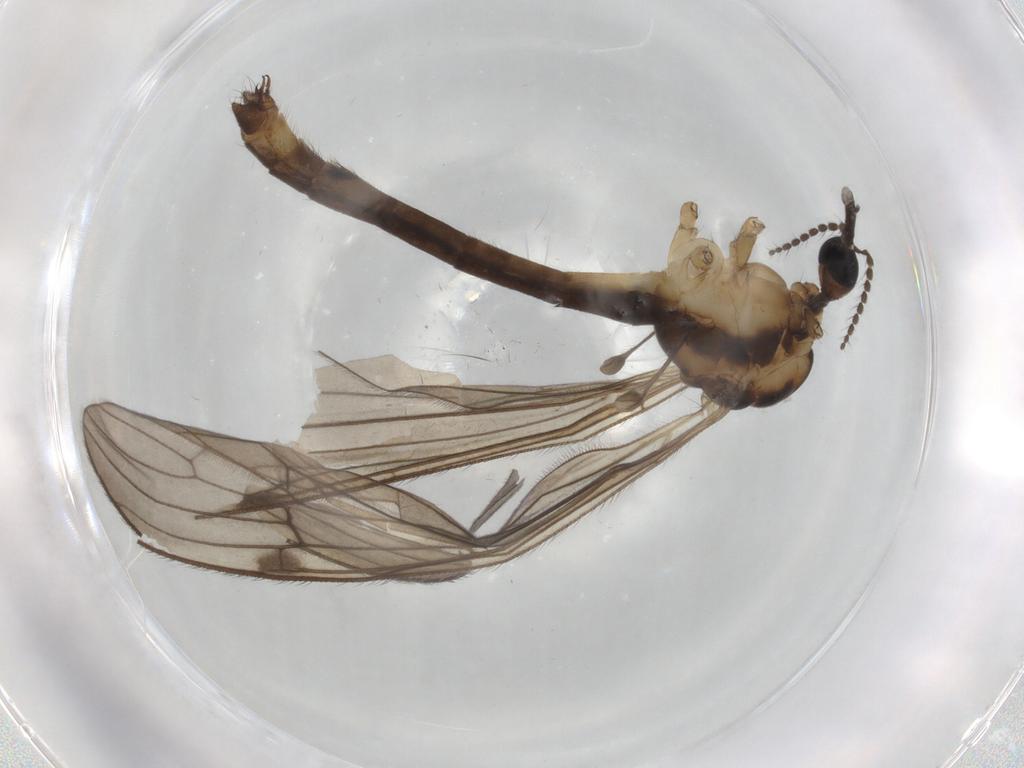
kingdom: Animalia
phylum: Arthropoda
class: Insecta
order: Diptera
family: Limoniidae
